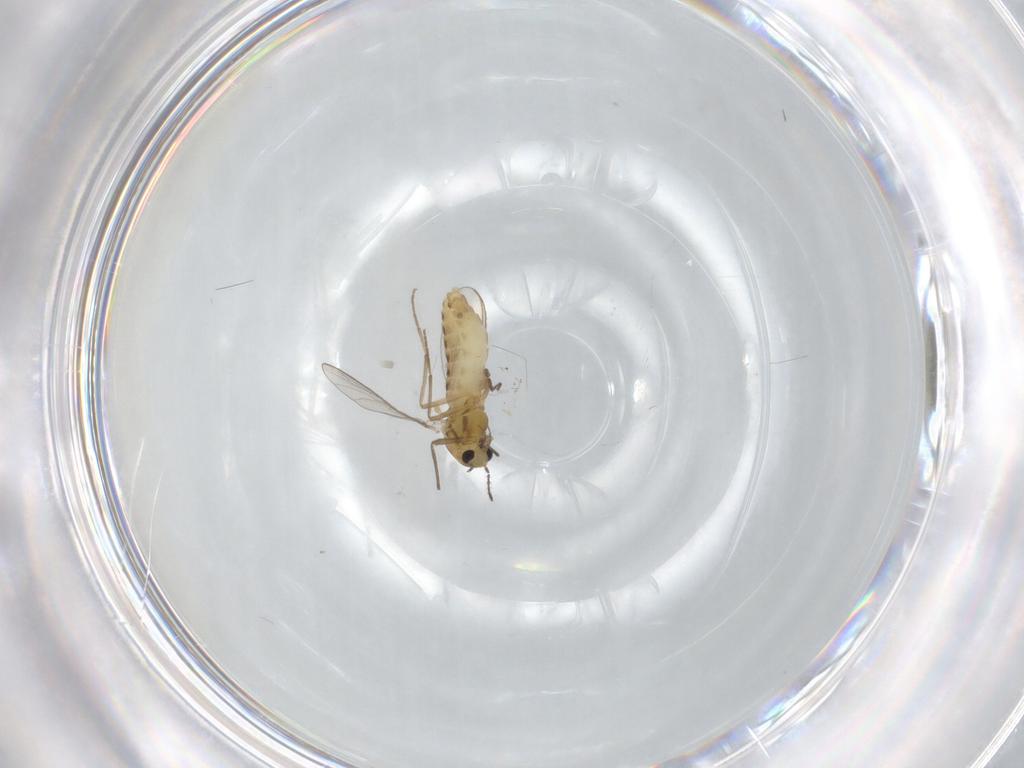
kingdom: Animalia
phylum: Arthropoda
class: Insecta
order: Diptera
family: Chironomidae
